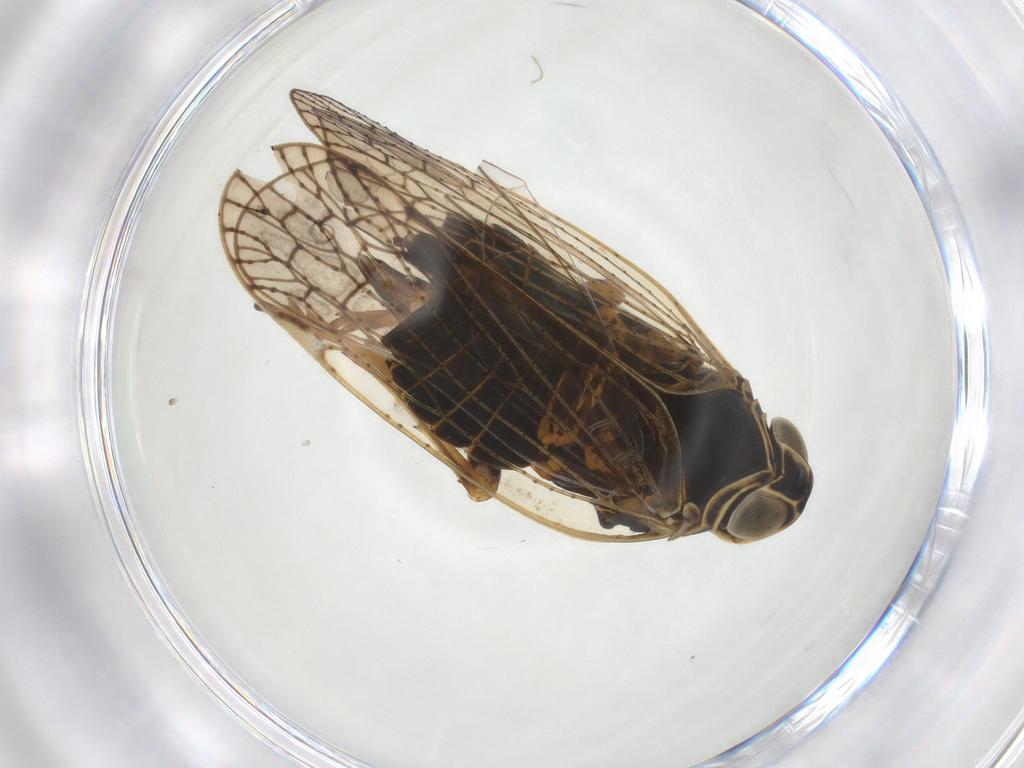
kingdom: Animalia
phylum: Arthropoda
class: Insecta
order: Hemiptera
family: Cixiidae
